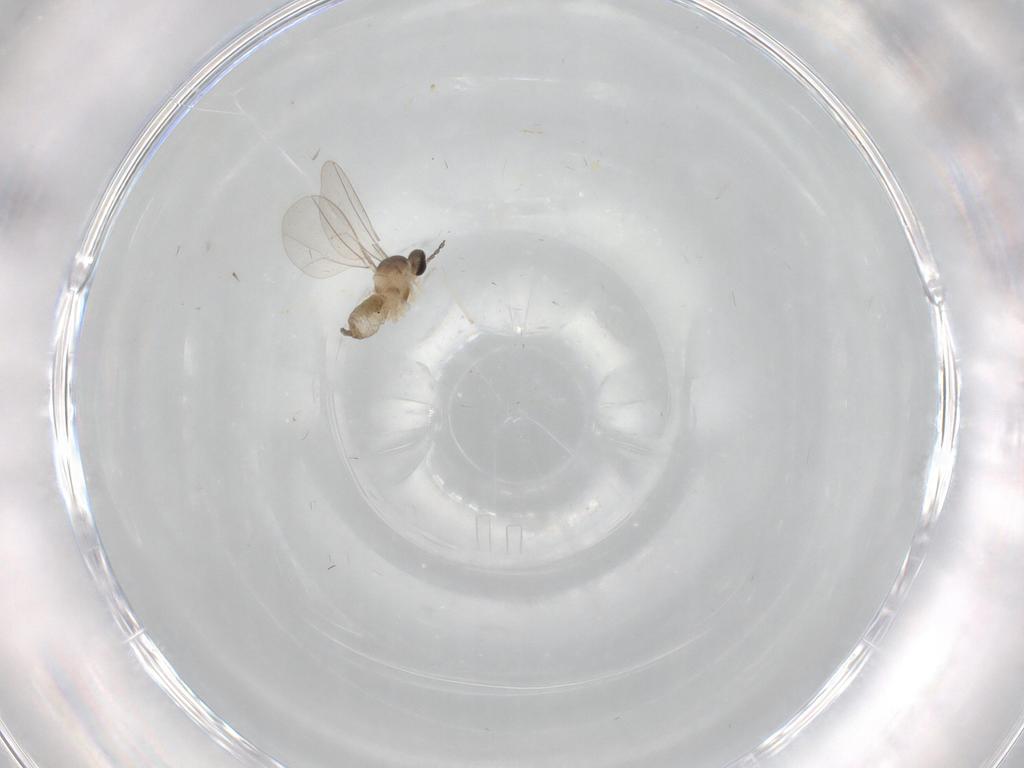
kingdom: Animalia
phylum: Arthropoda
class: Insecta
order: Diptera
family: Cecidomyiidae
